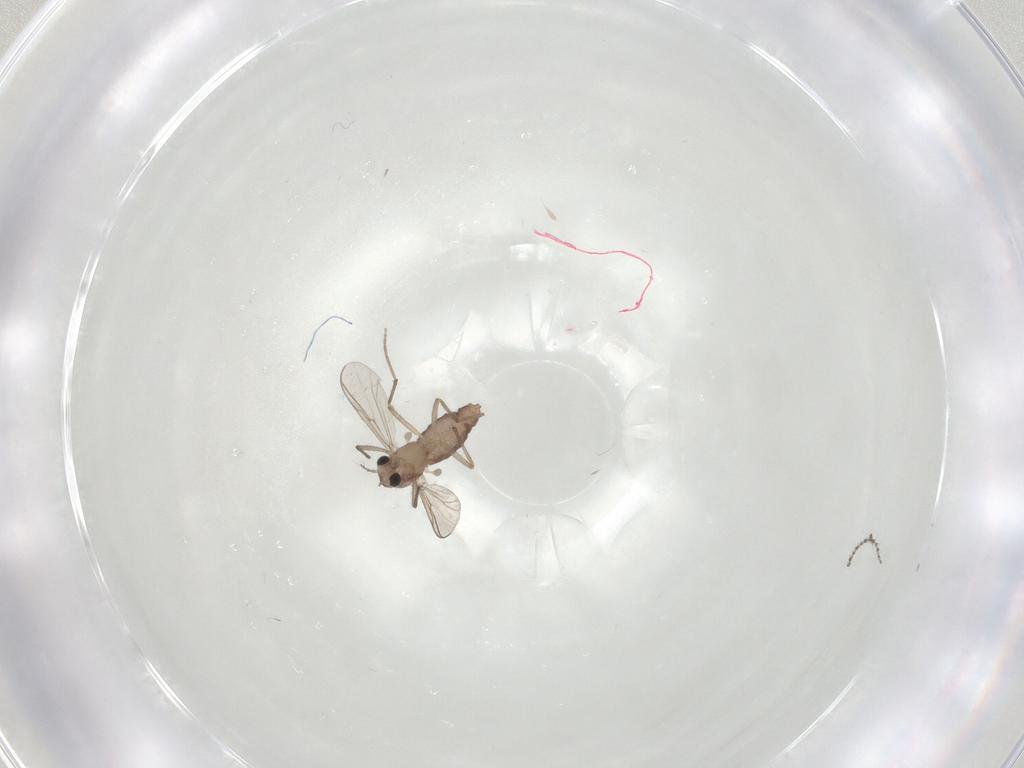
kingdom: Animalia
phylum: Arthropoda
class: Insecta
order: Diptera
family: Chironomidae
